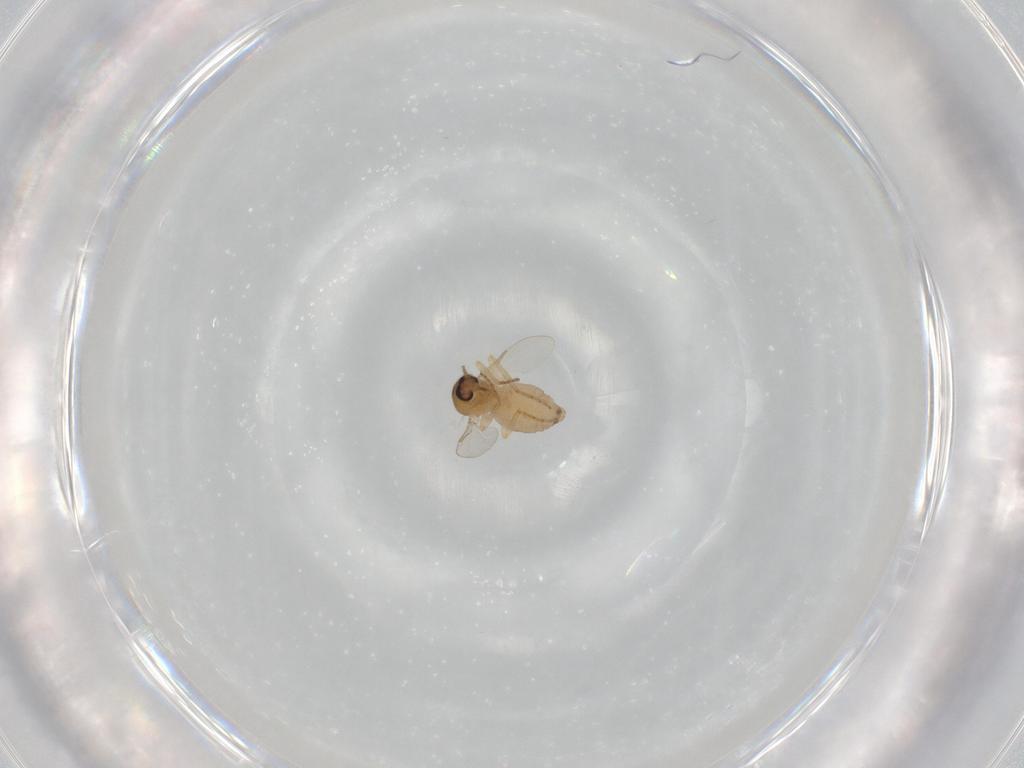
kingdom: Animalia
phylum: Arthropoda
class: Insecta
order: Diptera
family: Ceratopogonidae
